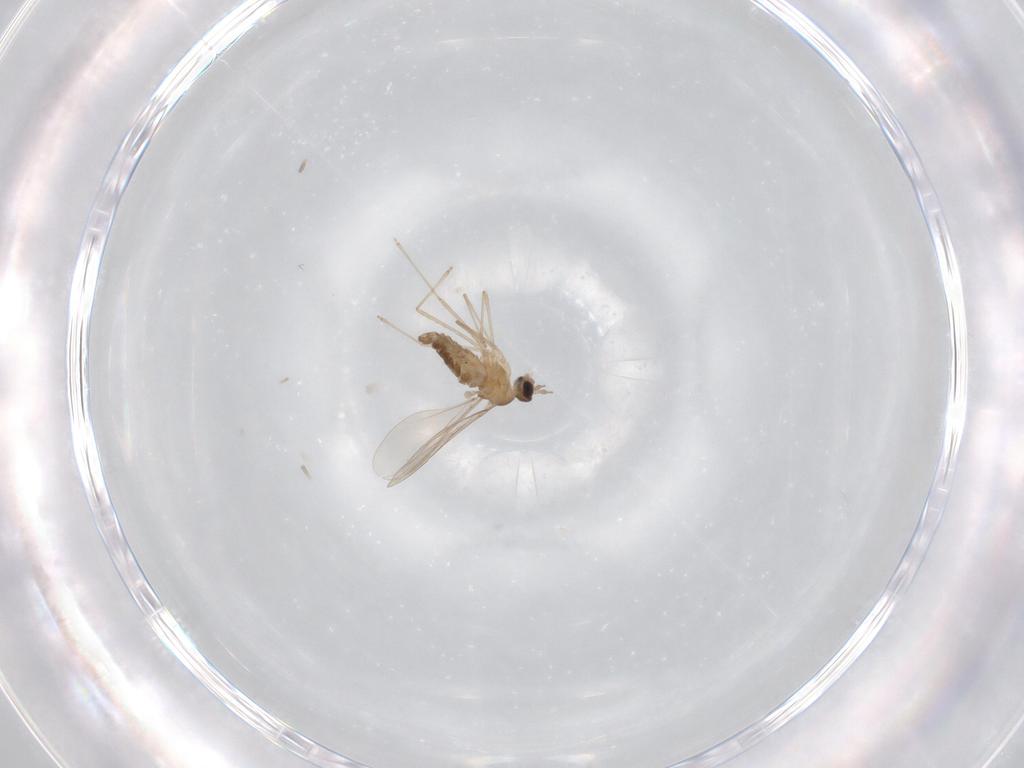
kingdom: Animalia
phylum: Arthropoda
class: Insecta
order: Diptera
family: Cecidomyiidae
